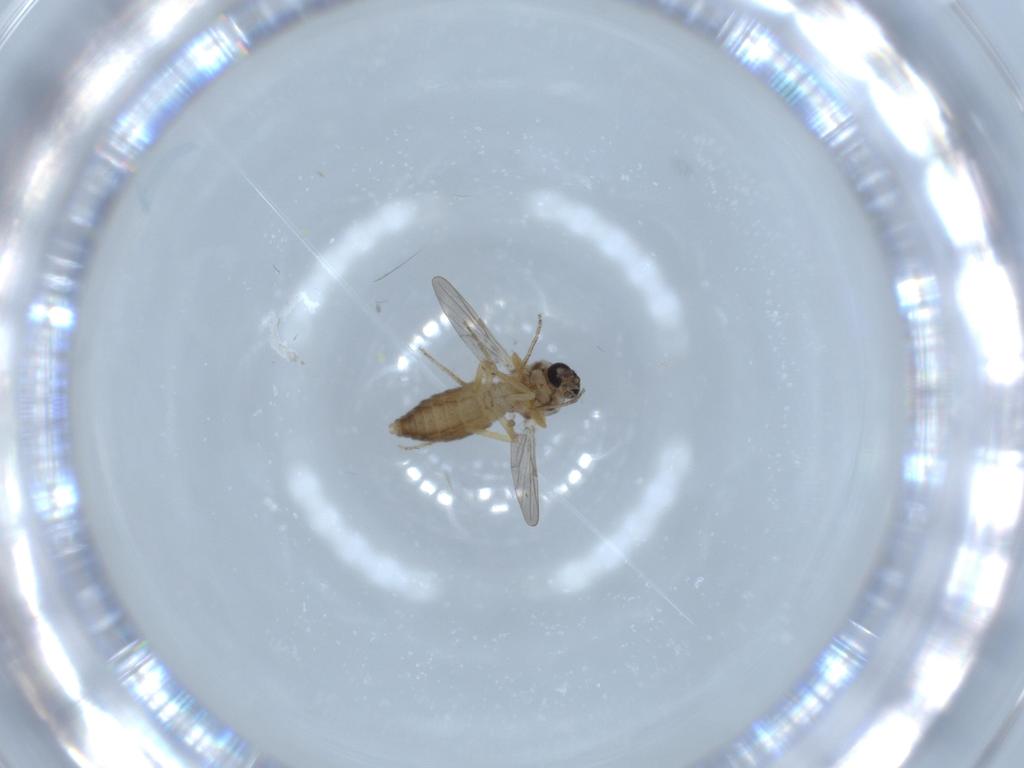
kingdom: Animalia
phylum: Arthropoda
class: Insecta
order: Diptera
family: Ceratopogonidae
